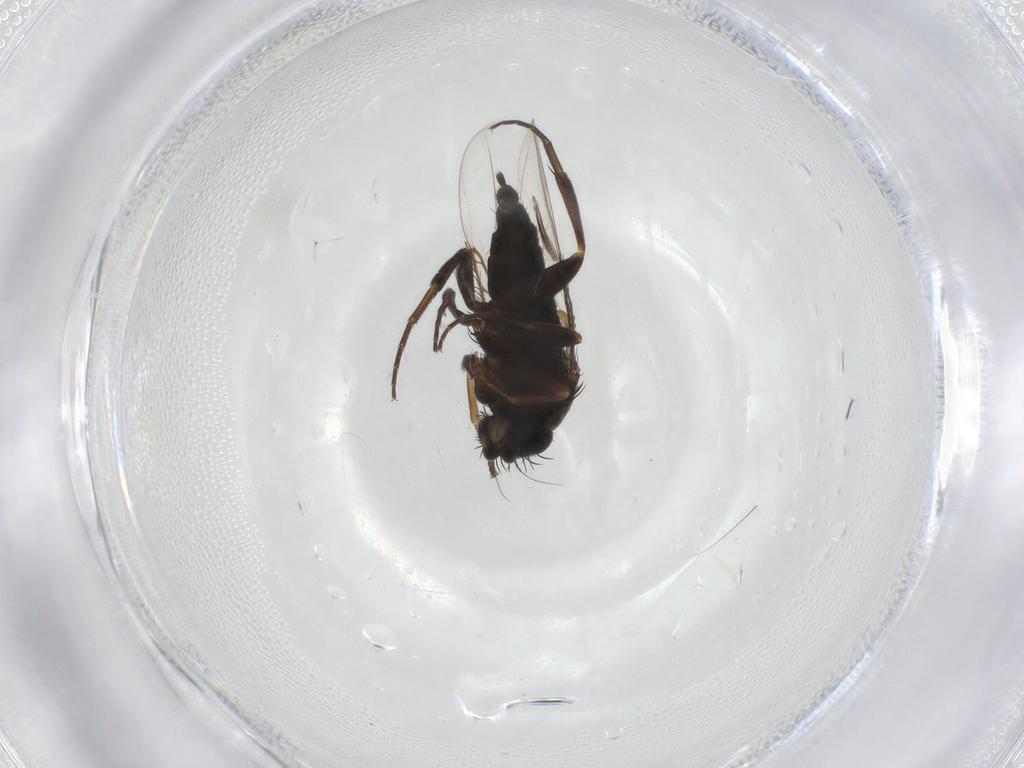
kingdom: Animalia
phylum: Arthropoda
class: Insecta
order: Diptera
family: Phoridae
